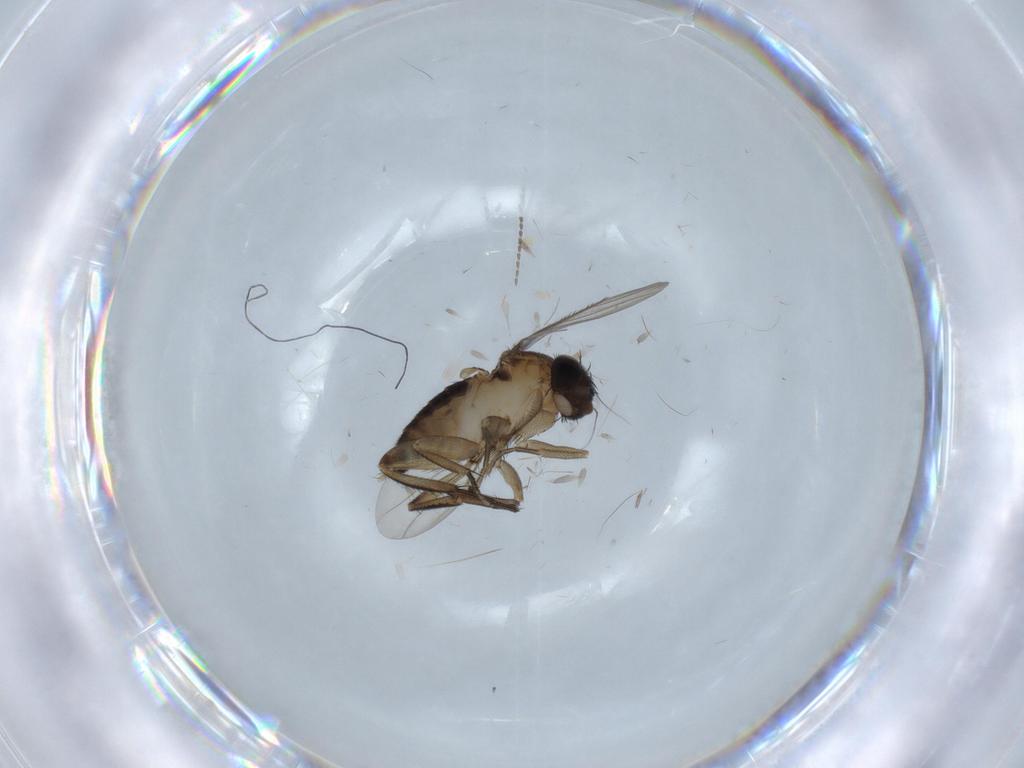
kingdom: Animalia
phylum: Arthropoda
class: Insecta
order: Diptera
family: Phoridae
